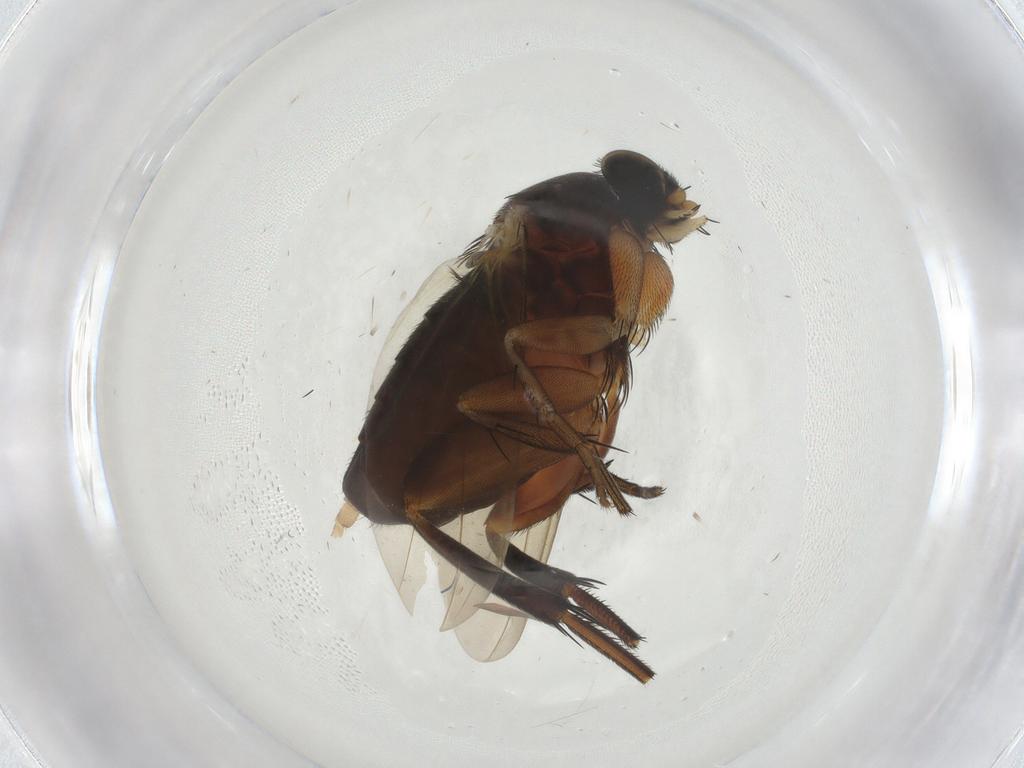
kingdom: Animalia
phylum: Arthropoda
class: Insecta
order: Diptera
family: Phoridae
